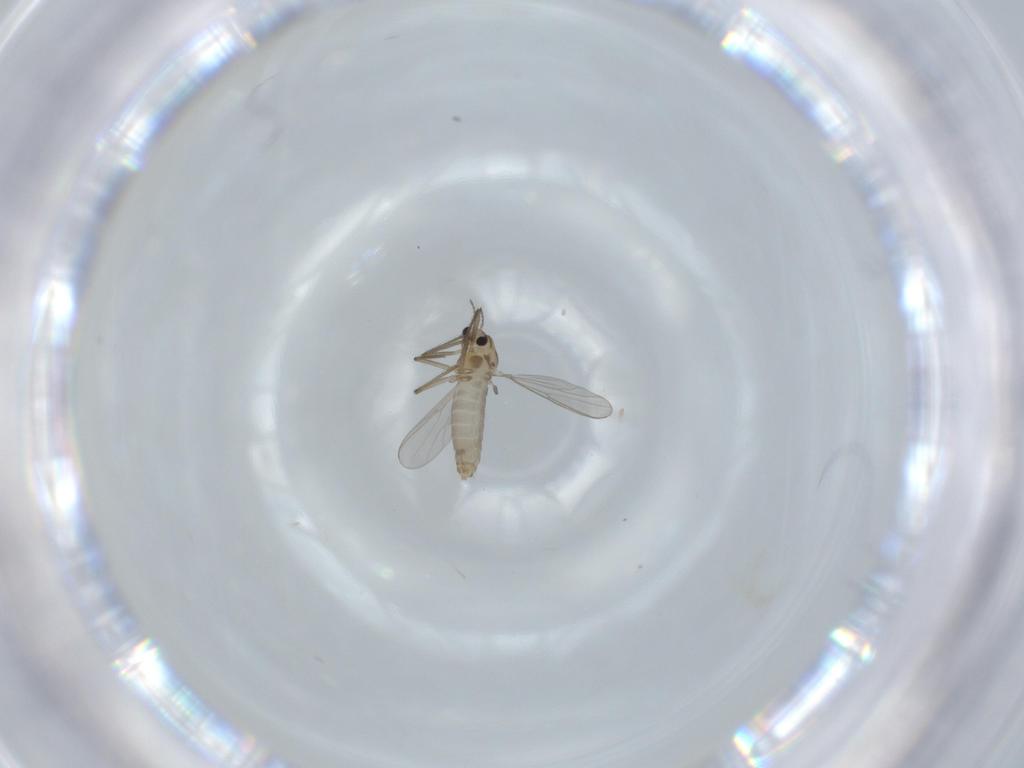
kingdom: Animalia
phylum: Arthropoda
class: Insecta
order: Diptera
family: Chironomidae
